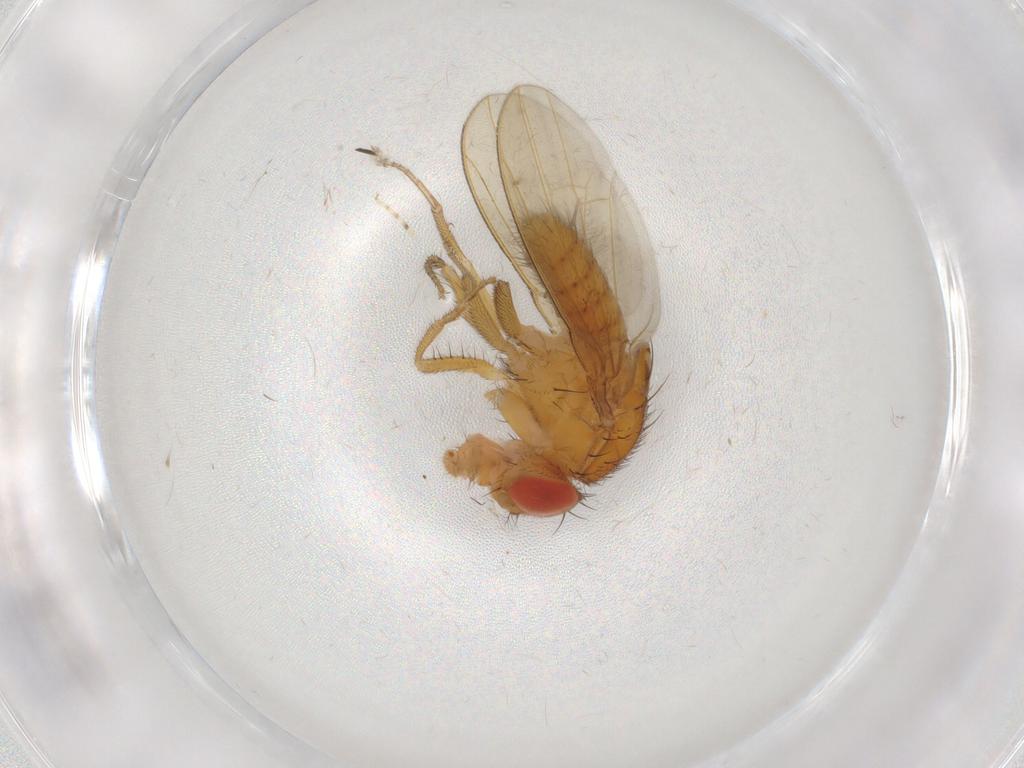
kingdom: Animalia
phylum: Arthropoda
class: Insecta
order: Diptera
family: Drosophilidae
